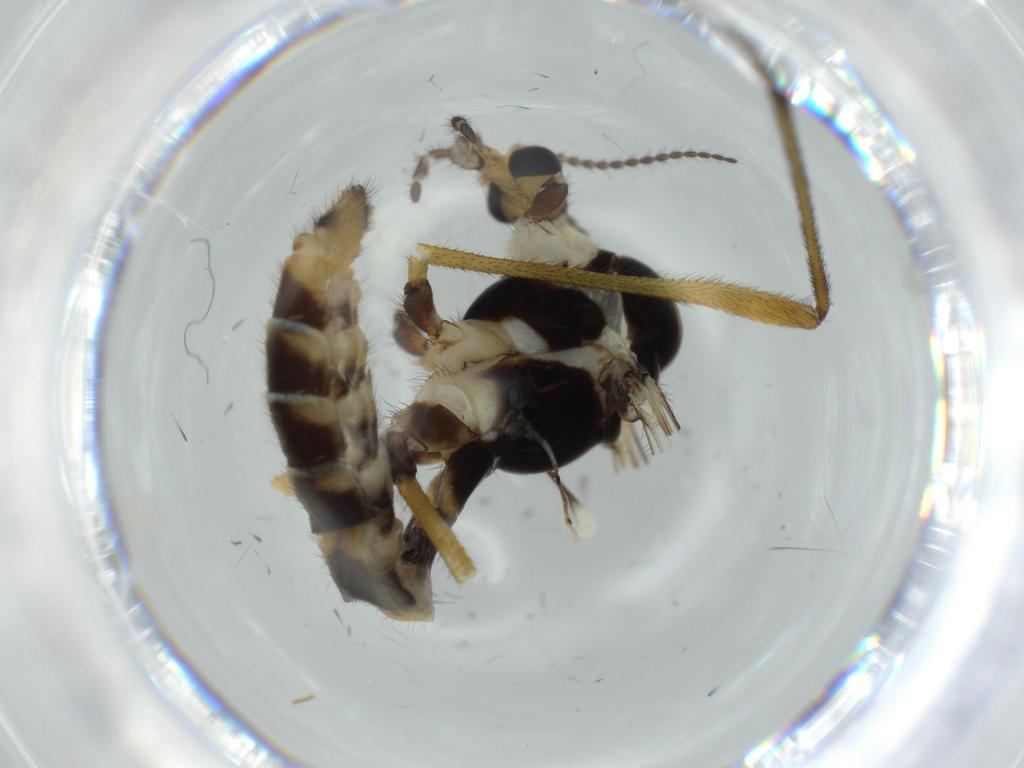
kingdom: Animalia
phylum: Arthropoda
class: Insecta
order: Diptera
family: Limoniidae
